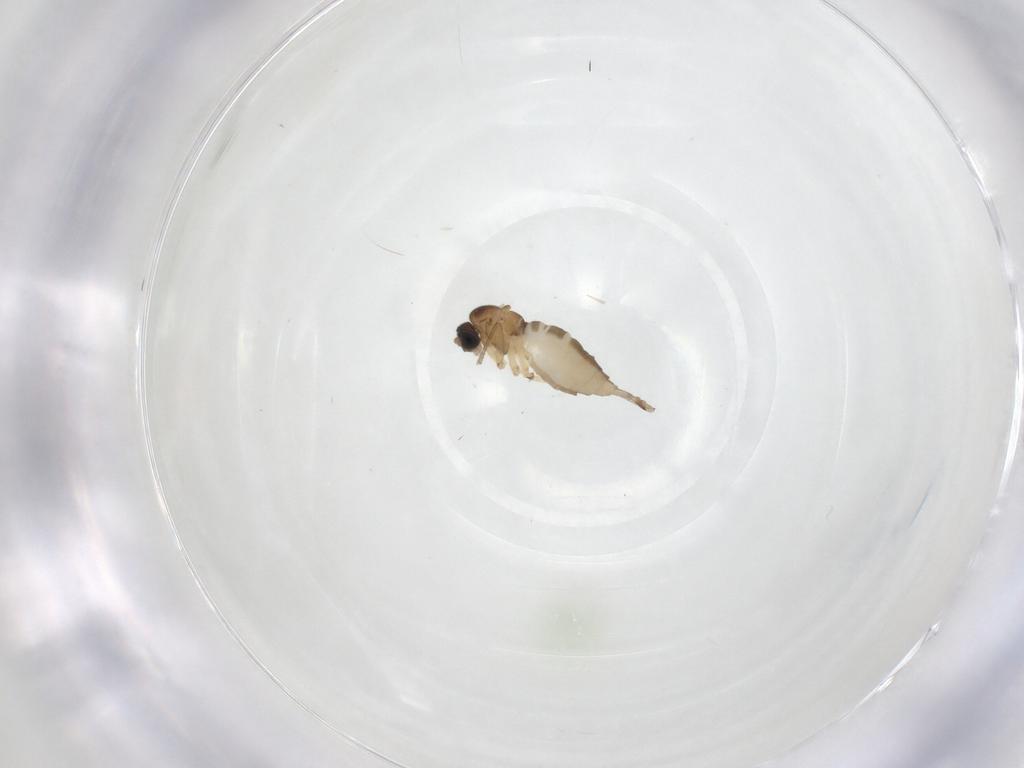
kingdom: Animalia
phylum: Arthropoda
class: Insecta
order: Diptera
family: Sciaridae
